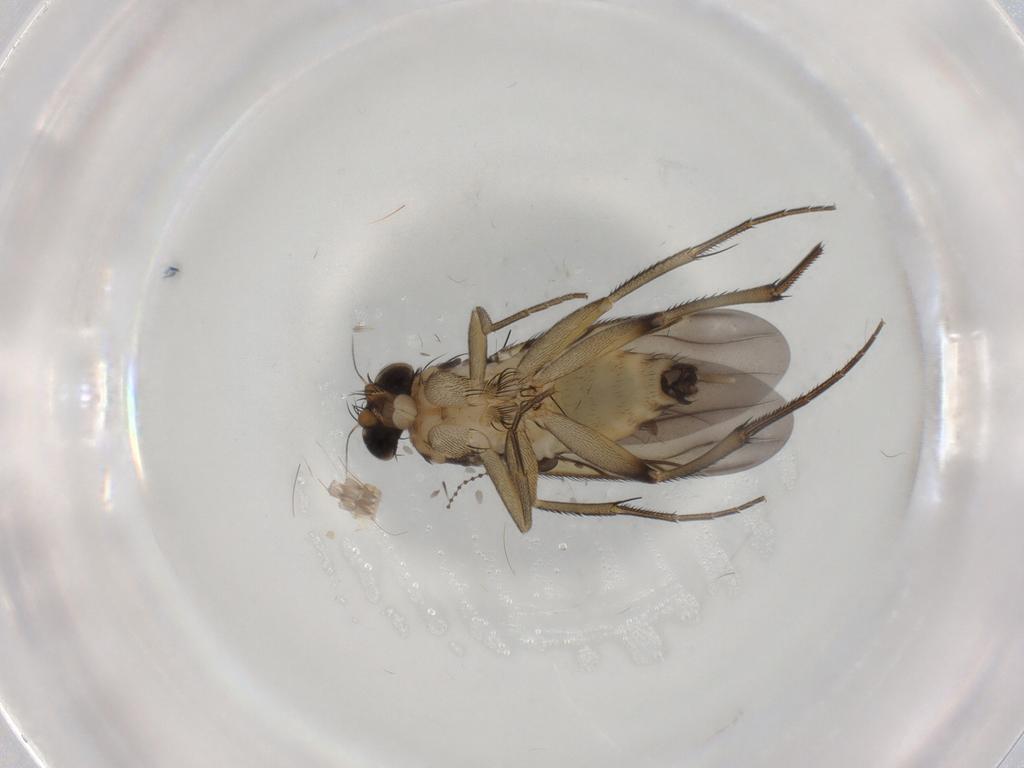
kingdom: Animalia
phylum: Arthropoda
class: Insecta
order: Diptera
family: Phoridae
